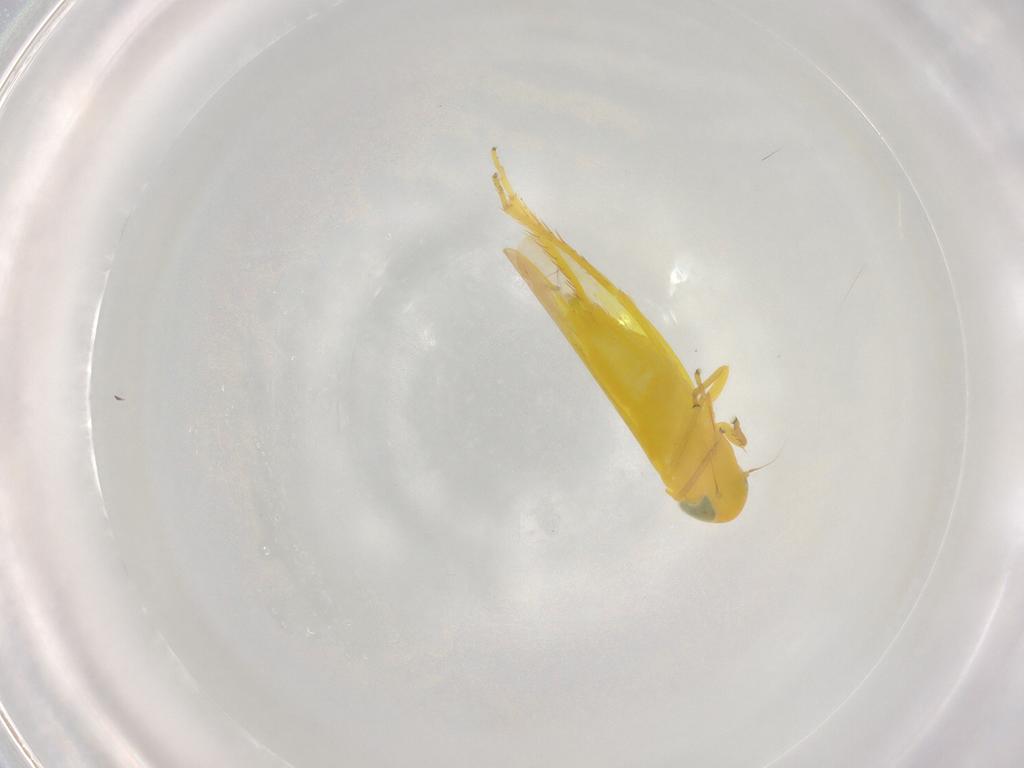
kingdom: Animalia
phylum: Arthropoda
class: Insecta
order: Hemiptera
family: Cicadellidae
